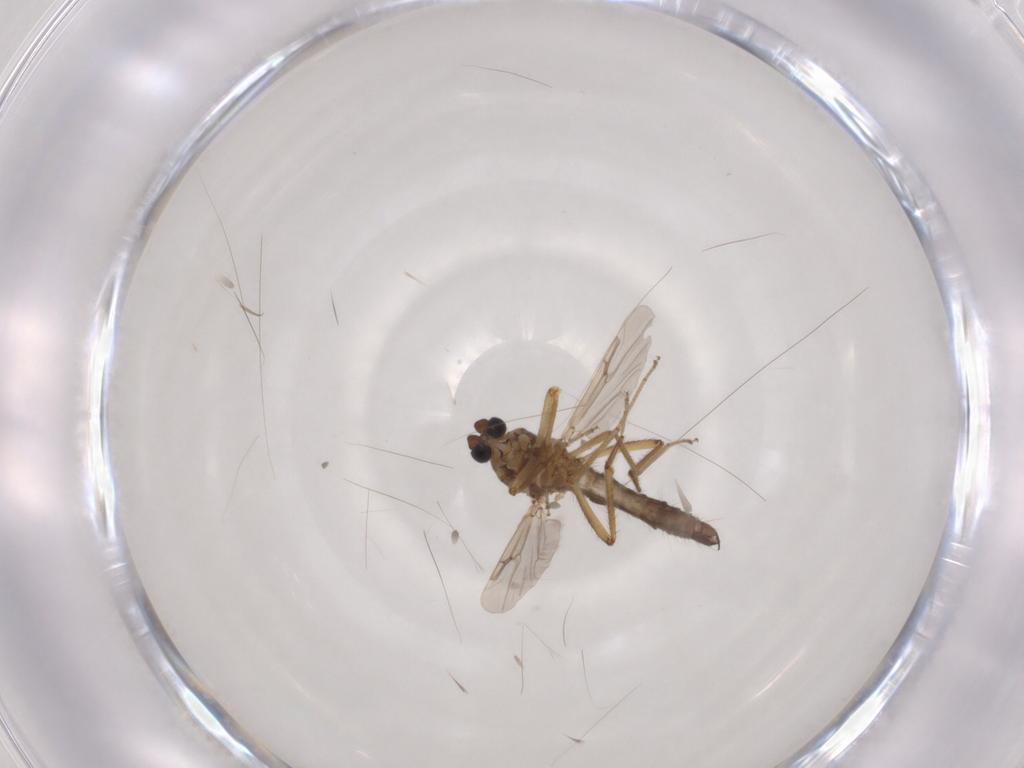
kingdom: Animalia
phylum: Arthropoda
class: Insecta
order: Diptera
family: Ceratopogonidae
